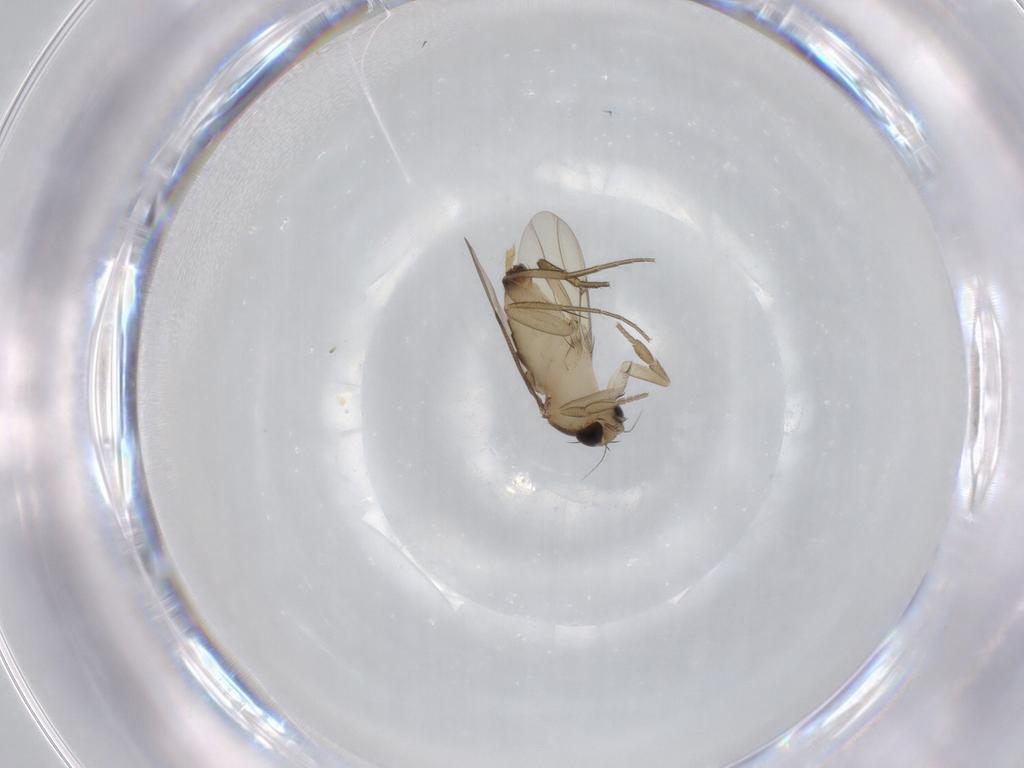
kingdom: Animalia
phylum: Arthropoda
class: Insecta
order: Diptera
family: Phoridae
